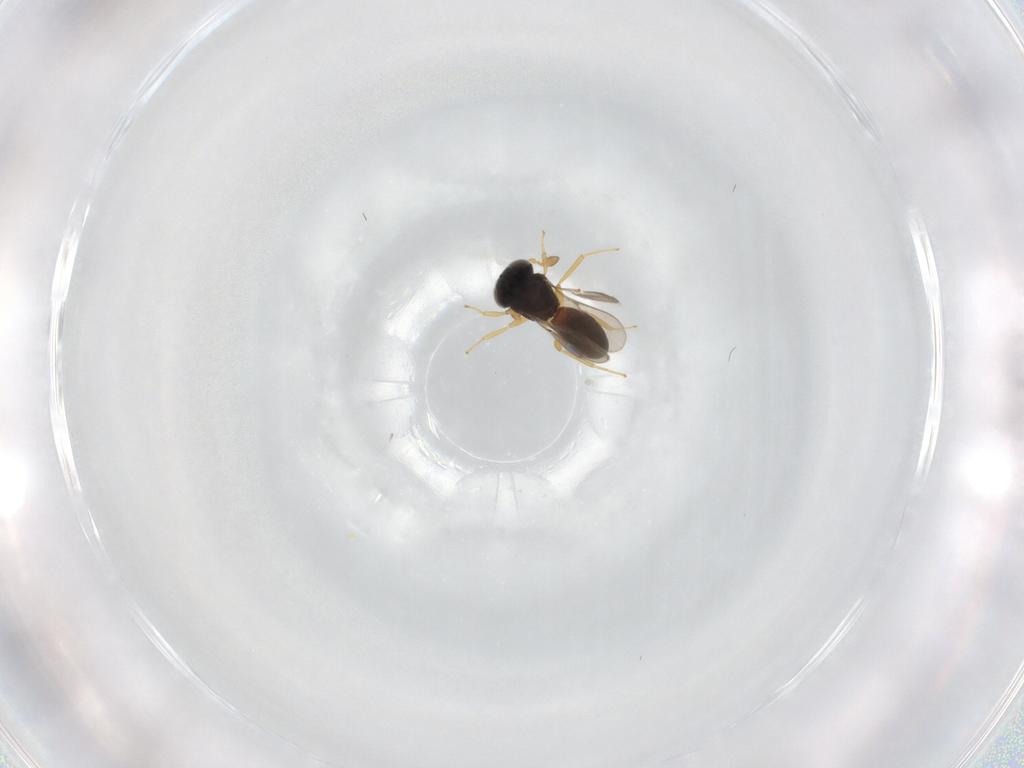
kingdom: Animalia
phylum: Arthropoda
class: Insecta
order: Hymenoptera
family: Scelionidae
